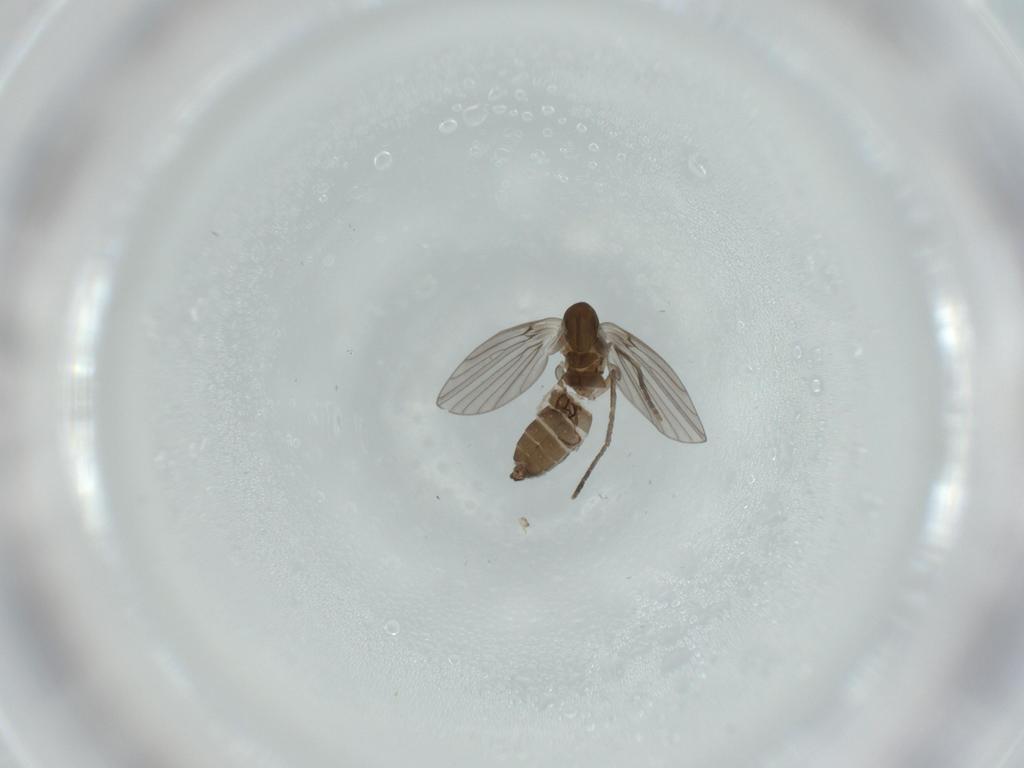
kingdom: Animalia
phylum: Arthropoda
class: Insecta
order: Diptera
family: Psychodidae
